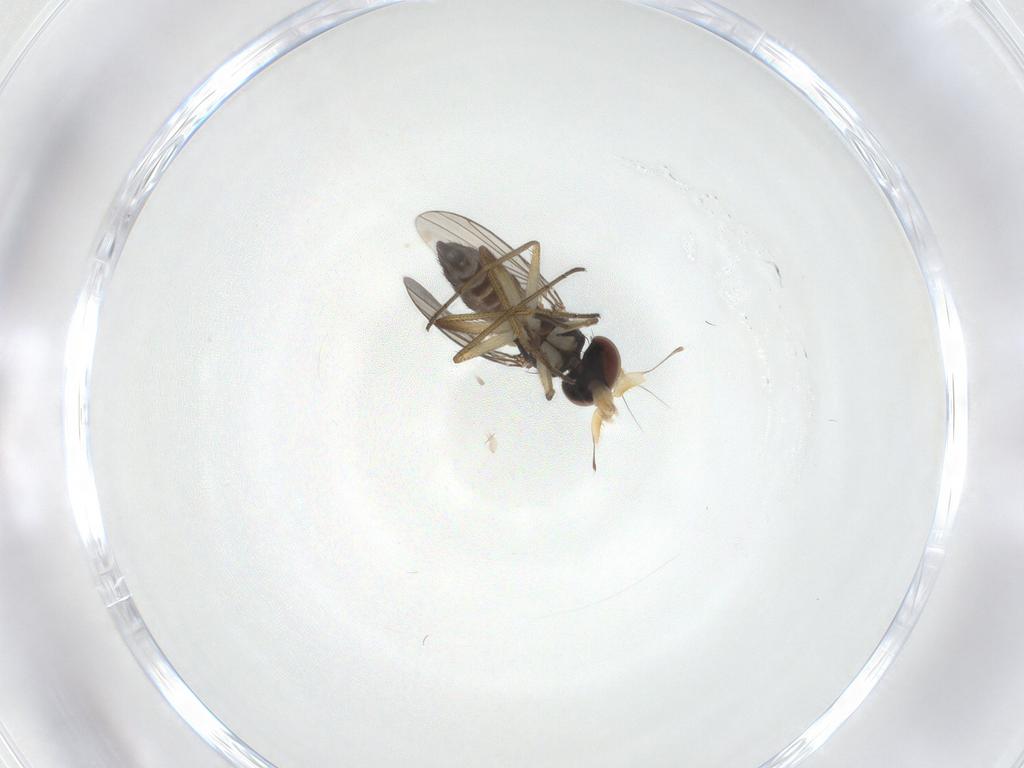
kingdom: Animalia
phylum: Arthropoda
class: Insecta
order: Diptera
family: Dolichopodidae
